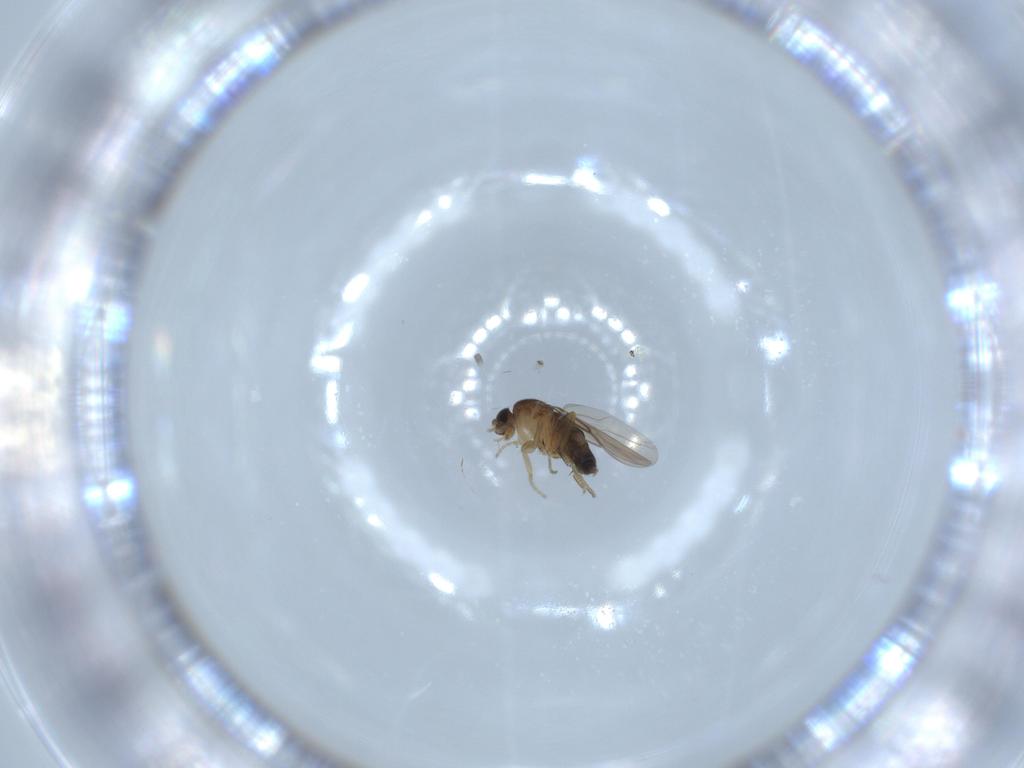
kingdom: Animalia
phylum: Arthropoda
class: Insecta
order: Diptera
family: Phoridae
